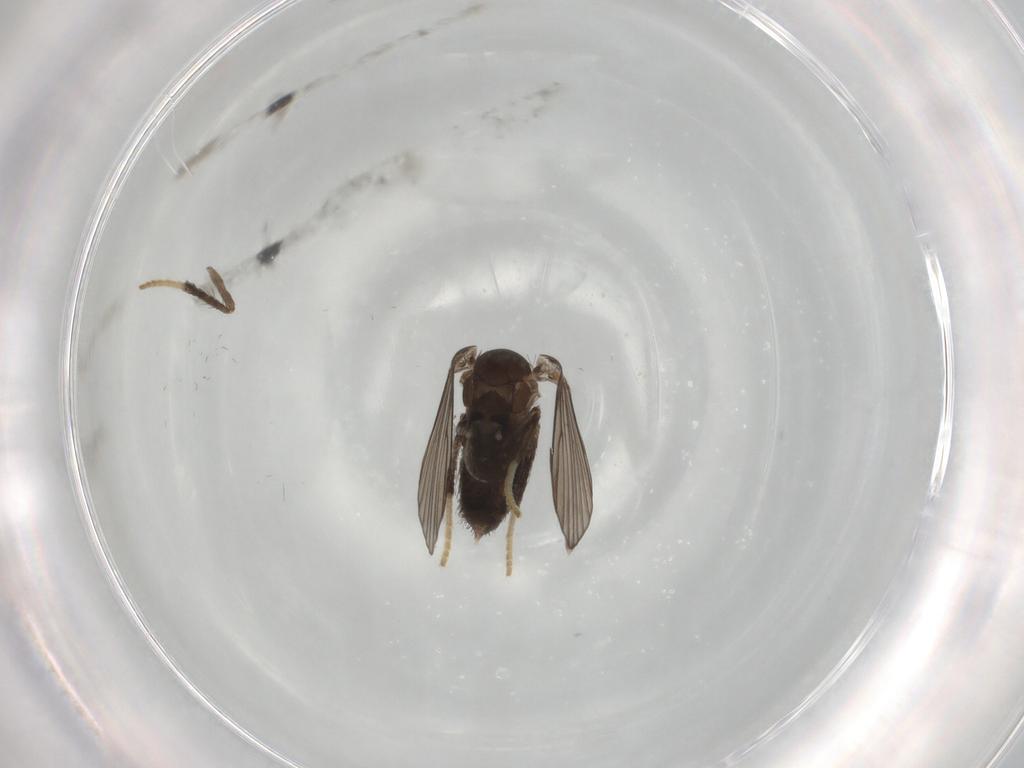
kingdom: Animalia
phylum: Arthropoda
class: Insecta
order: Diptera
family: Psychodidae
